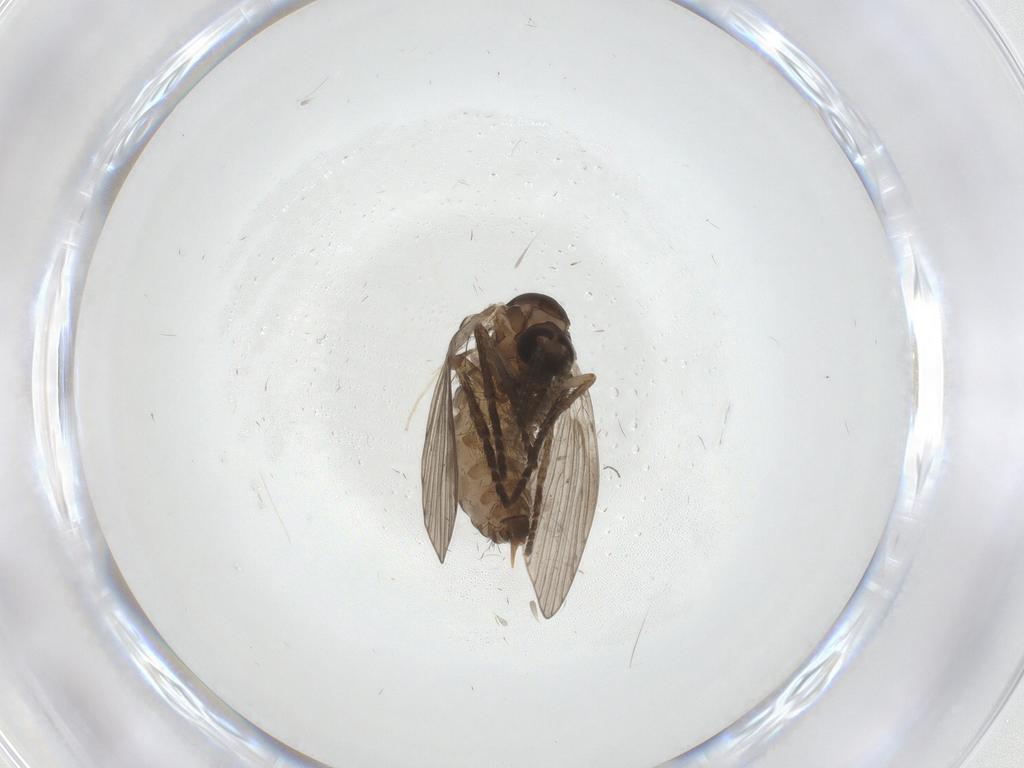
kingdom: Animalia
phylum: Arthropoda
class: Insecta
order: Diptera
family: Psychodidae
